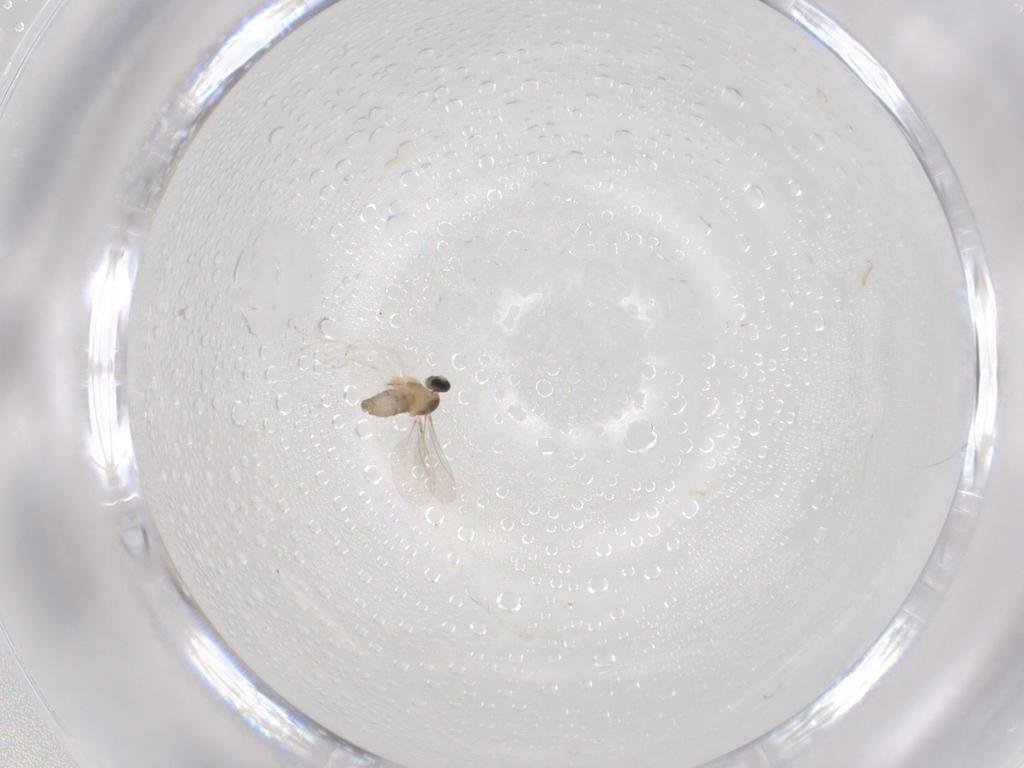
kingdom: Animalia
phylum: Arthropoda
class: Insecta
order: Diptera
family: Cecidomyiidae
